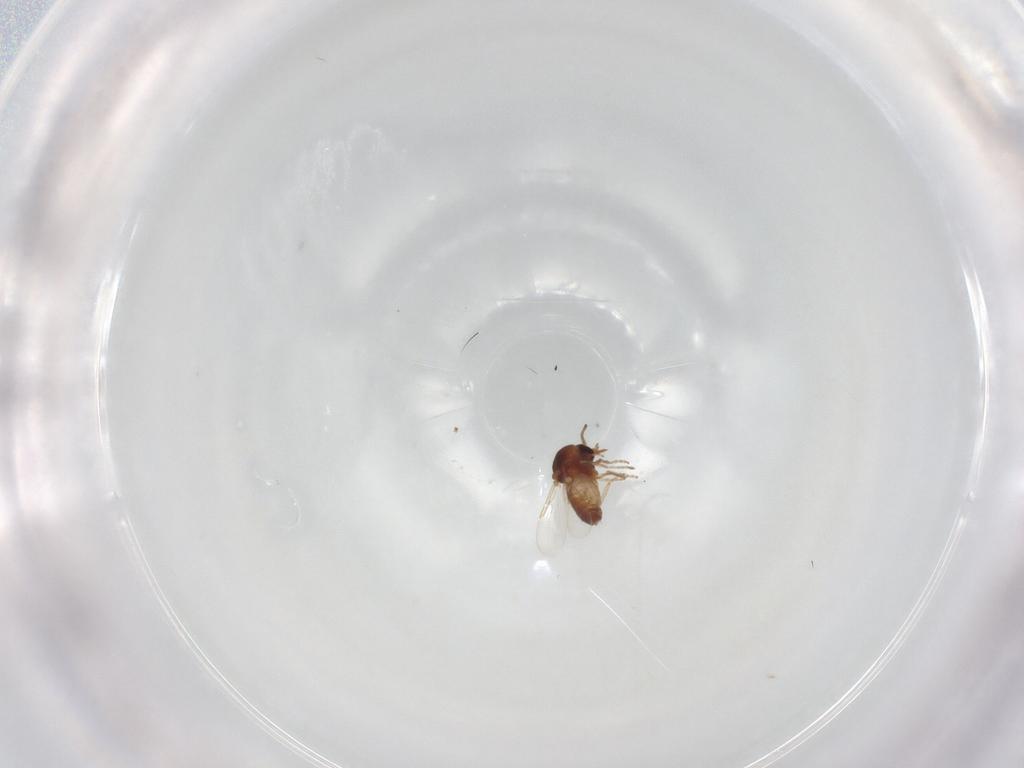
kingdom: Animalia
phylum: Arthropoda
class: Insecta
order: Diptera
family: Ceratopogonidae
